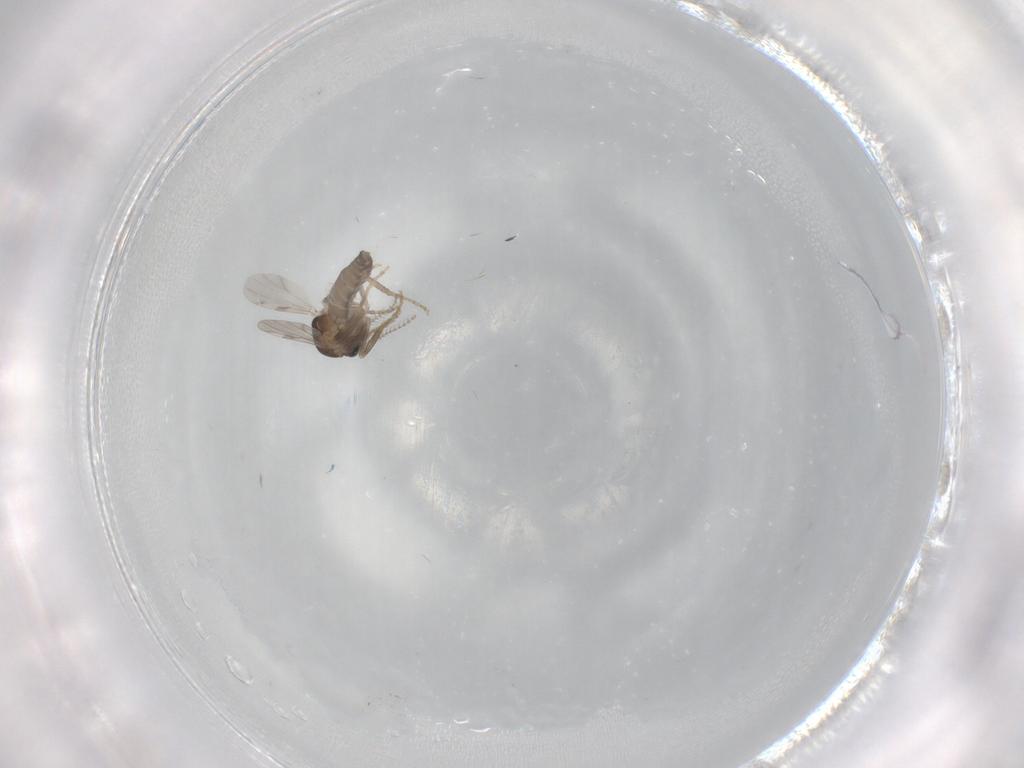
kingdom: Animalia
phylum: Arthropoda
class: Insecta
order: Diptera
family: Ceratopogonidae
